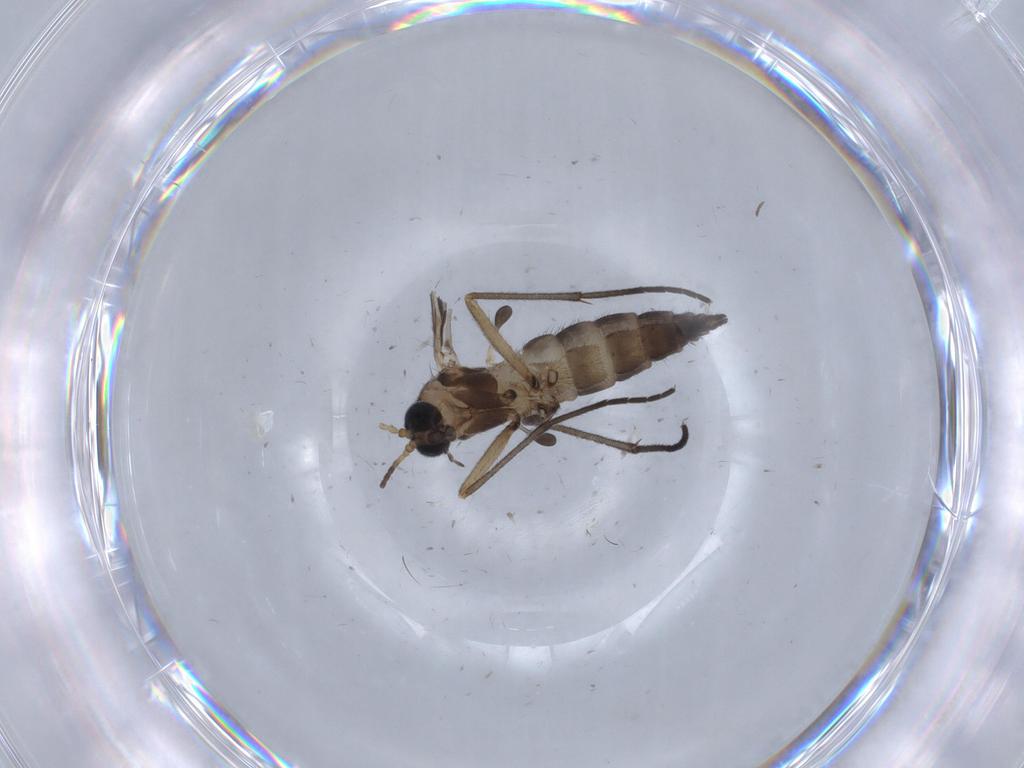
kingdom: Animalia
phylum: Arthropoda
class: Insecta
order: Diptera
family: Sciaridae
